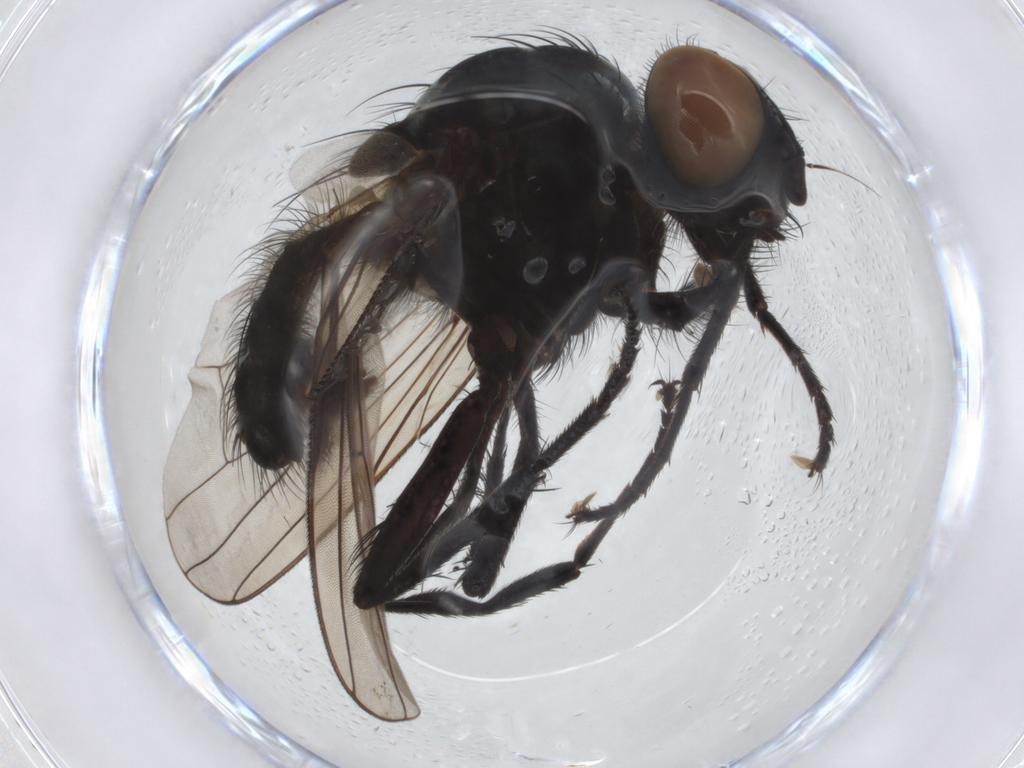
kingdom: Animalia
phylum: Arthropoda
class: Insecta
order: Diptera
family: Anthomyiidae
